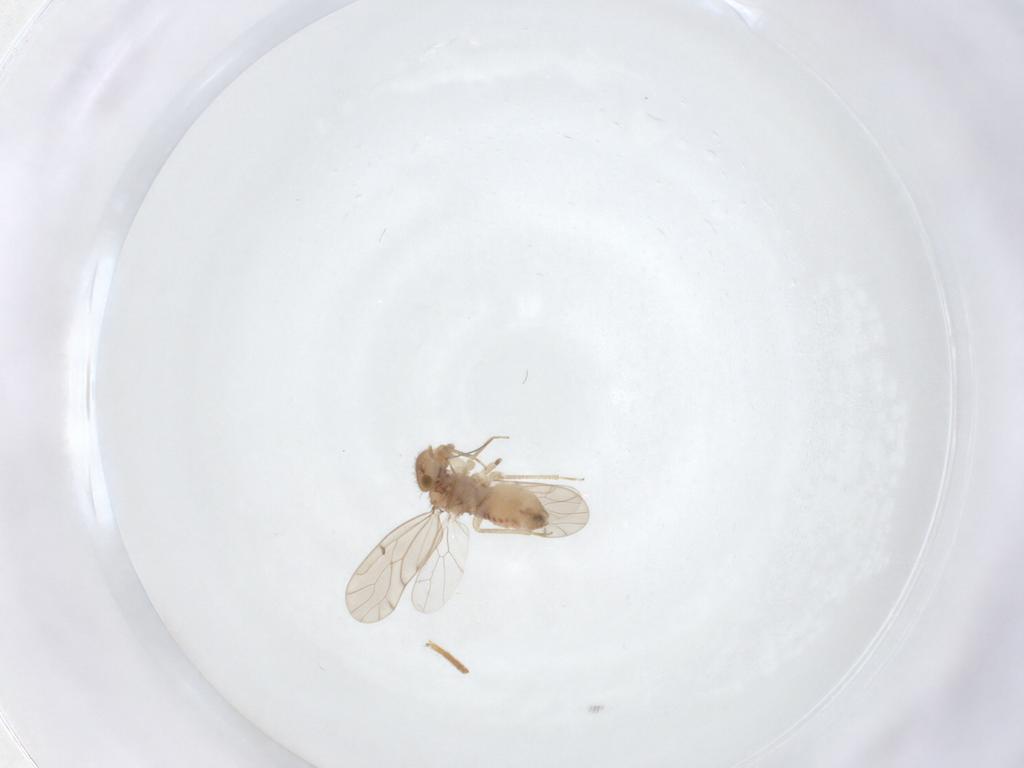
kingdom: Animalia
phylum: Arthropoda
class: Insecta
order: Psocodea
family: Ectopsocidae
